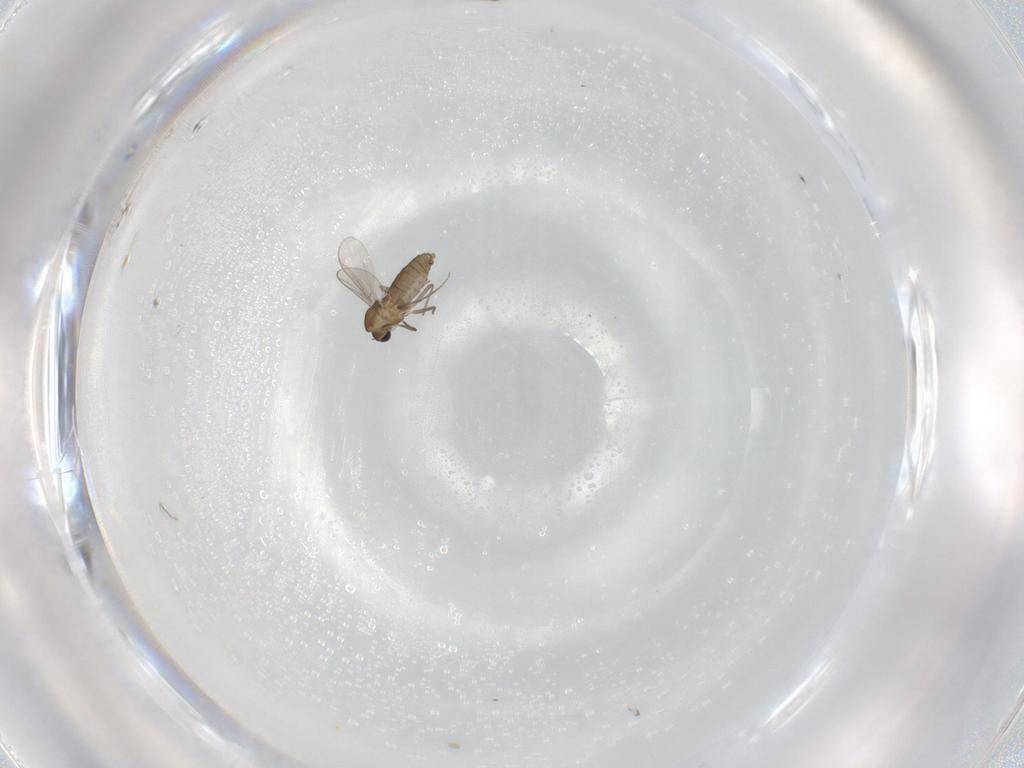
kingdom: Animalia
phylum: Arthropoda
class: Insecta
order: Diptera
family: Chironomidae
